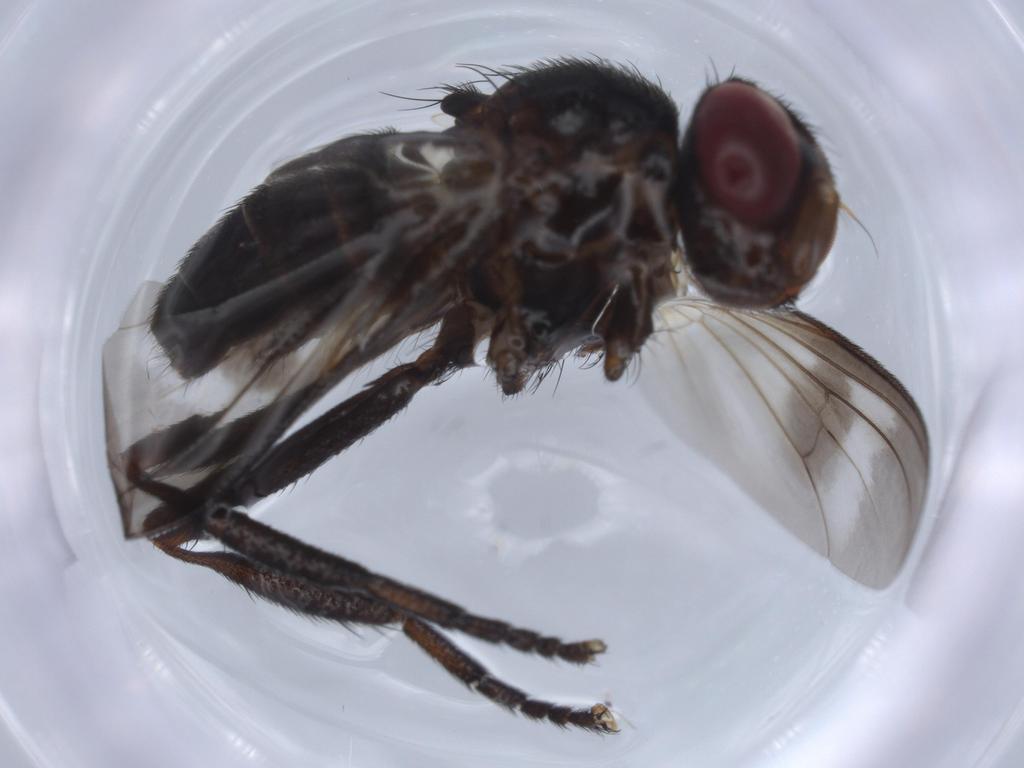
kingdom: Animalia
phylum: Arthropoda
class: Insecta
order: Diptera
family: Calliphoridae
